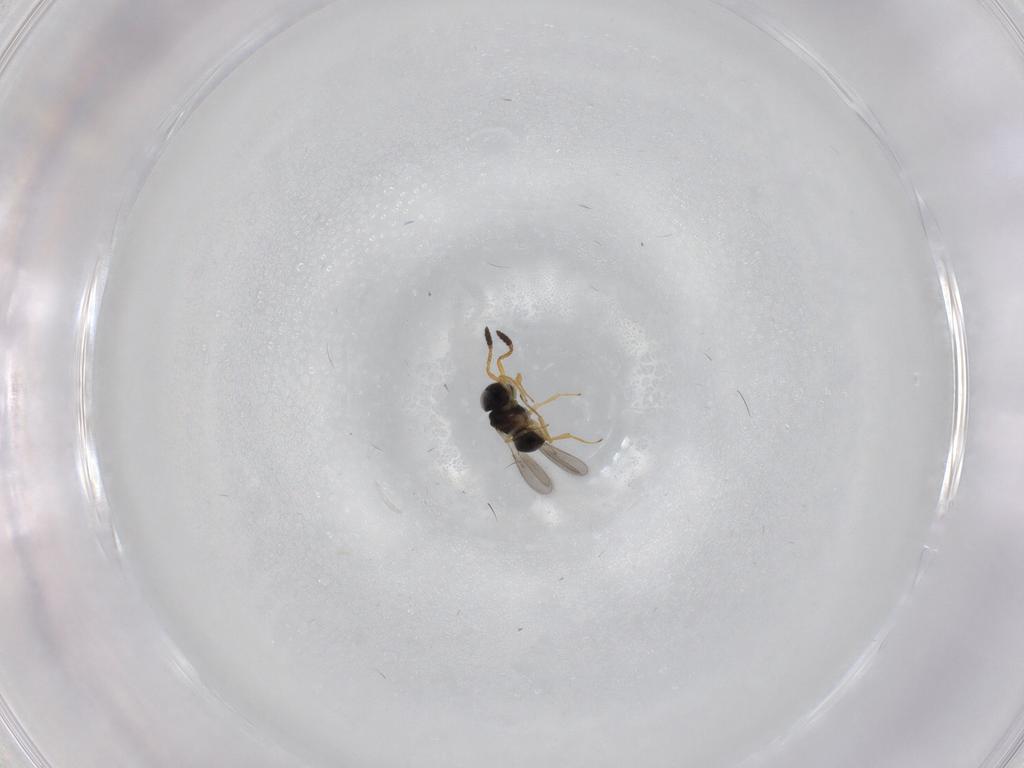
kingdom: Animalia
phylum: Arthropoda
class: Insecta
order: Hymenoptera
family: Scelionidae
